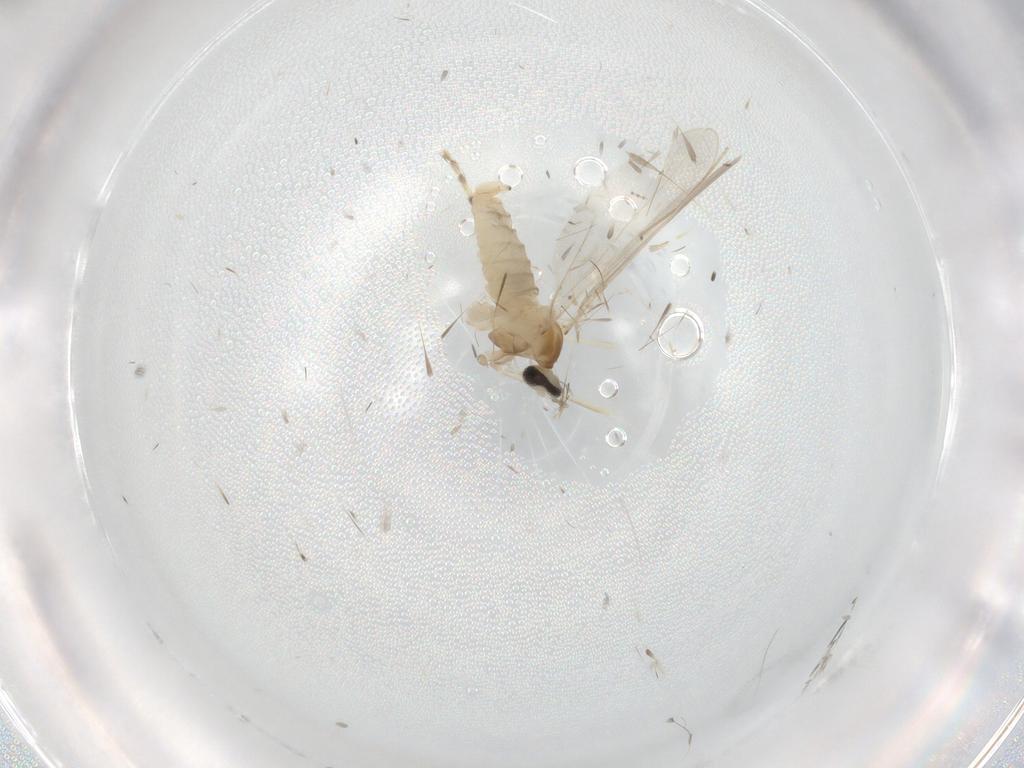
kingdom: Animalia
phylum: Arthropoda
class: Insecta
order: Diptera
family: Cecidomyiidae
